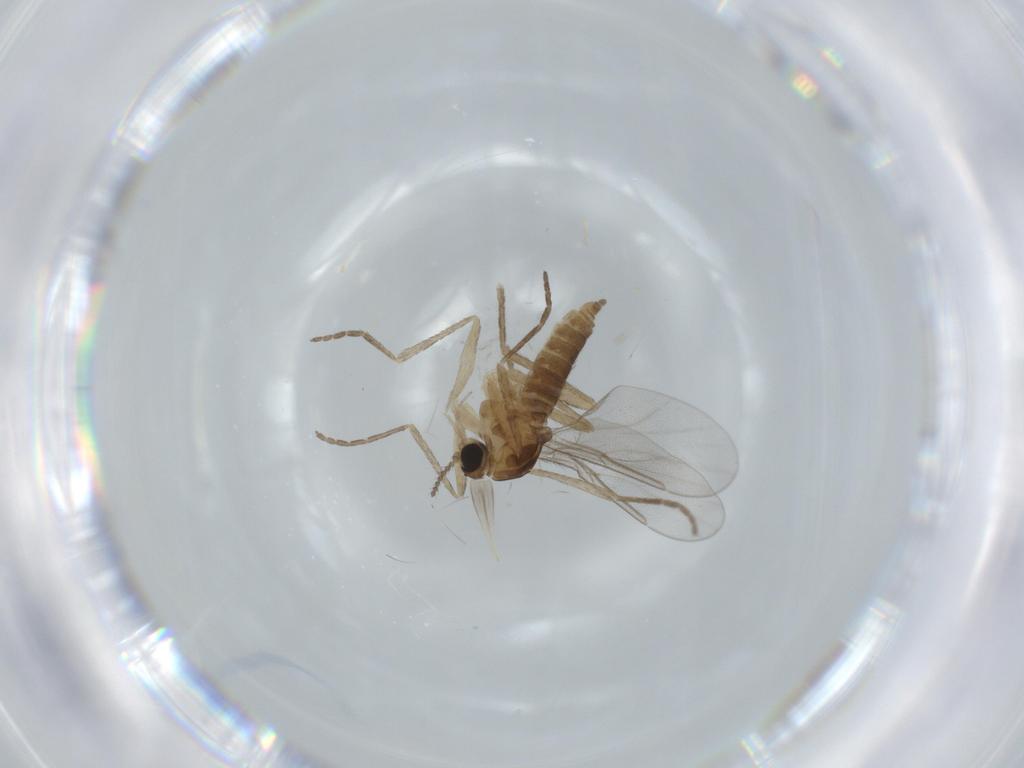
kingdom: Animalia
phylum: Arthropoda
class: Insecta
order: Diptera
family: Cecidomyiidae
